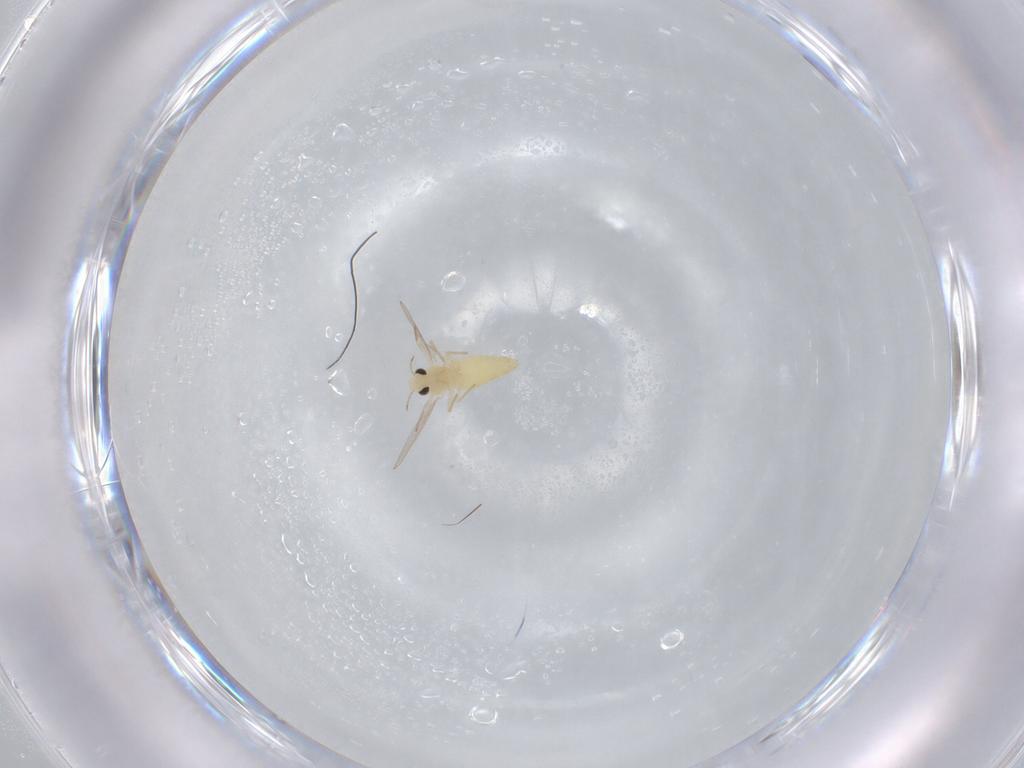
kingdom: Animalia
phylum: Arthropoda
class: Insecta
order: Diptera
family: Chironomidae
